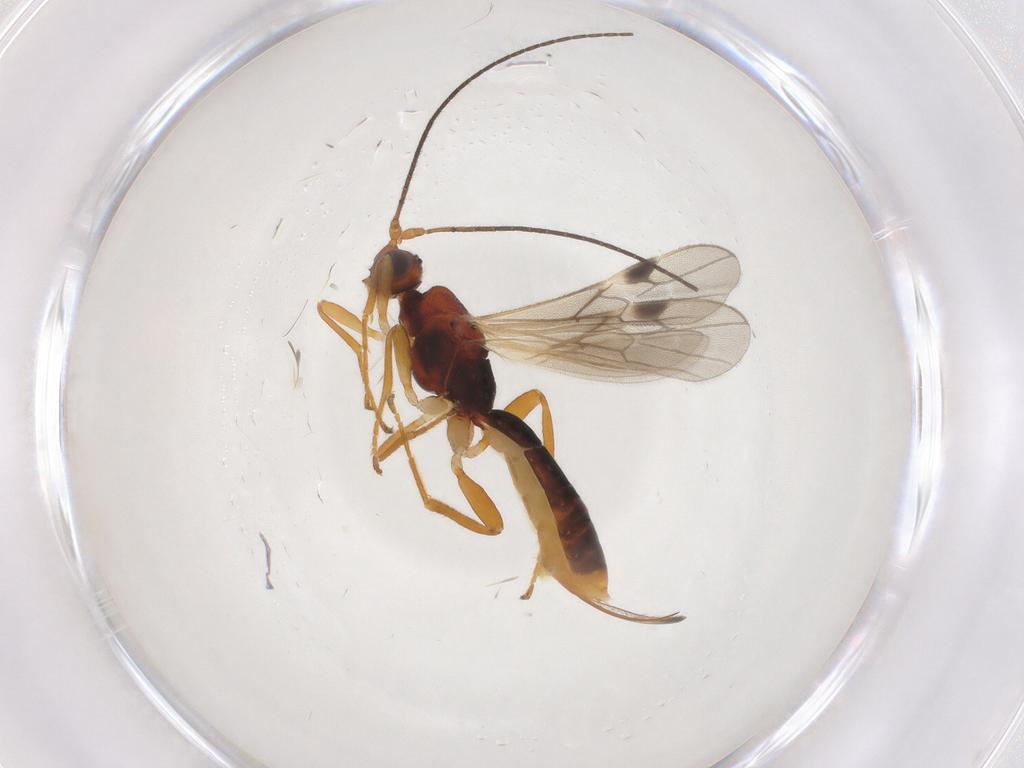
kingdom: Animalia
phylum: Arthropoda
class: Insecta
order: Hymenoptera
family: Braconidae
